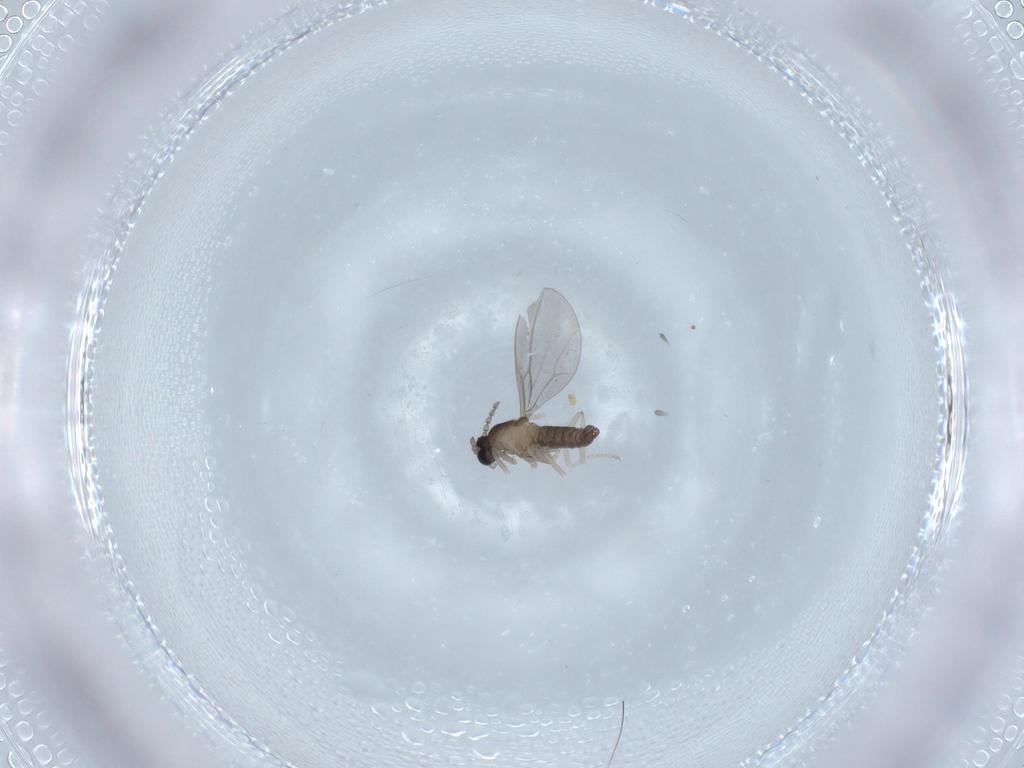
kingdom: Animalia
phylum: Arthropoda
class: Insecta
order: Diptera
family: Cecidomyiidae
